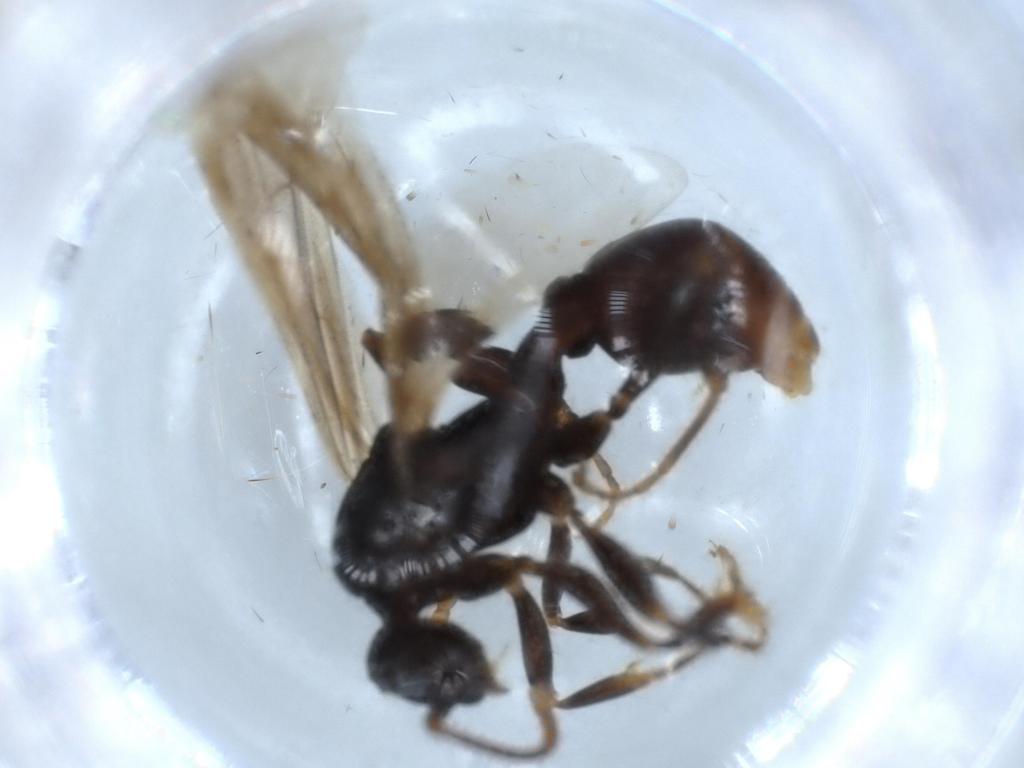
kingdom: Animalia
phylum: Arthropoda
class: Insecta
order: Hymenoptera
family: Formicidae
